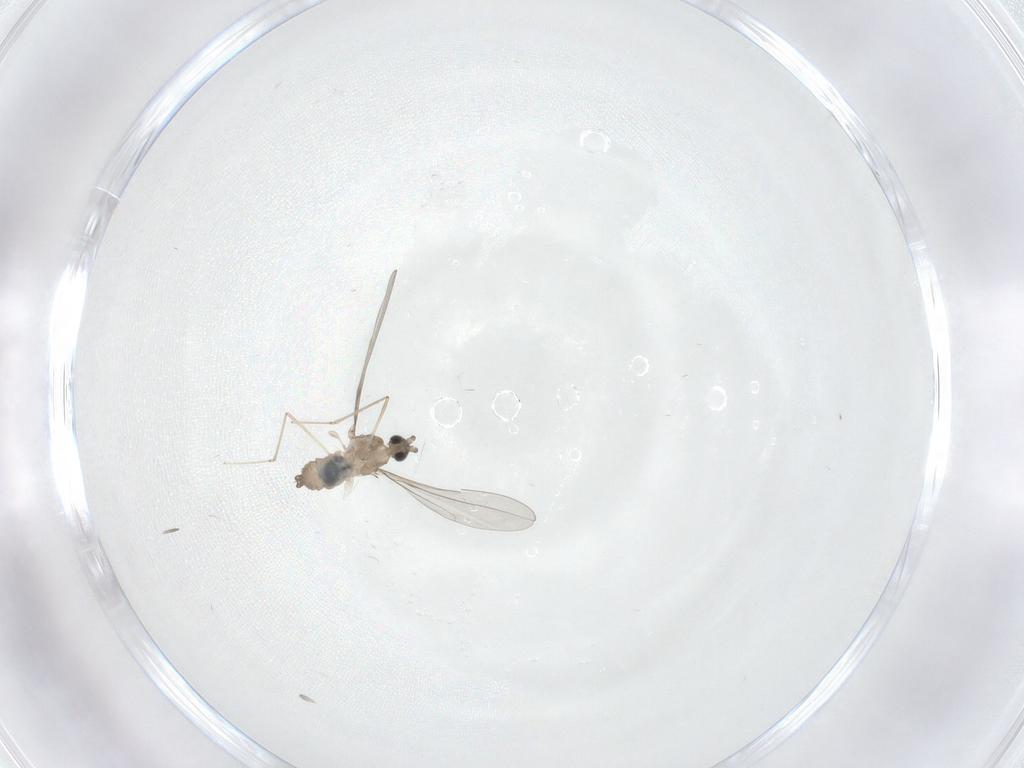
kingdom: Animalia
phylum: Arthropoda
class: Insecta
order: Diptera
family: Cecidomyiidae
